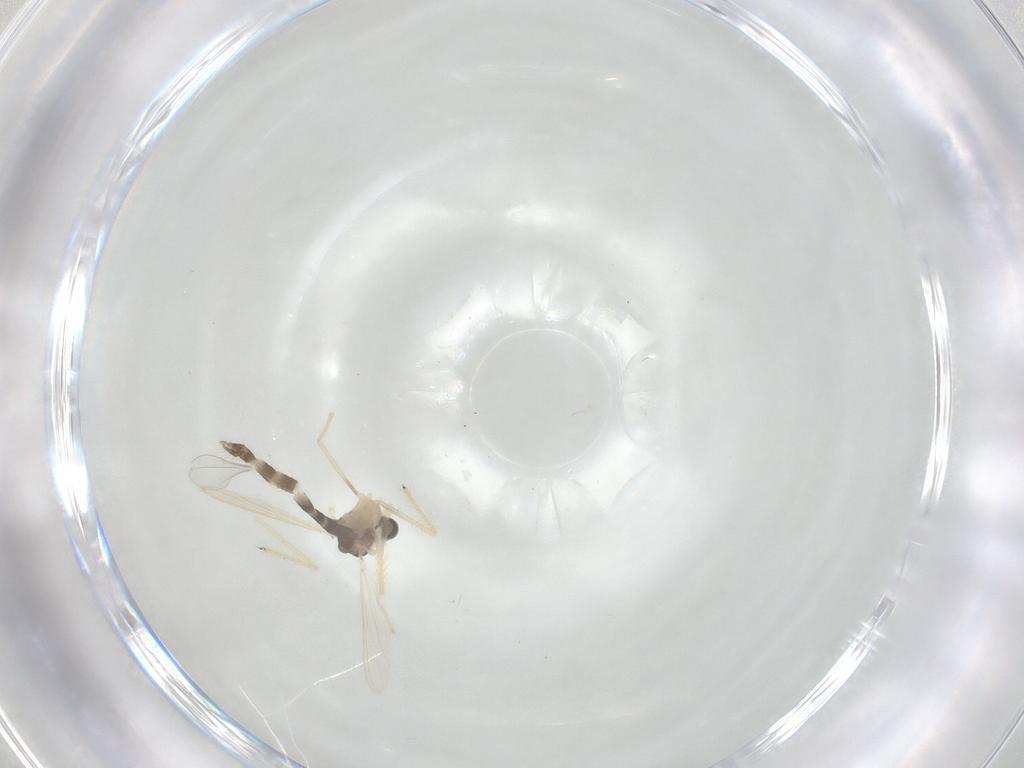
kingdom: Animalia
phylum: Arthropoda
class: Insecta
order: Diptera
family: Chironomidae
